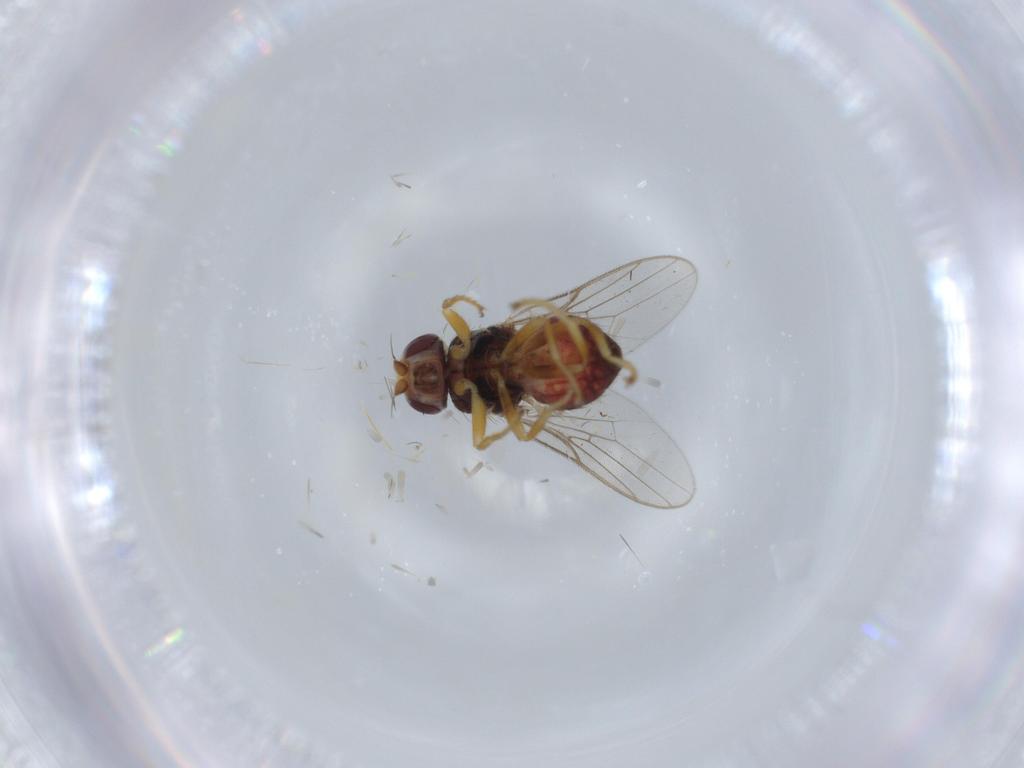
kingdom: Animalia
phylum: Arthropoda
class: Insecta
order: Diptera
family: Chloropidae
